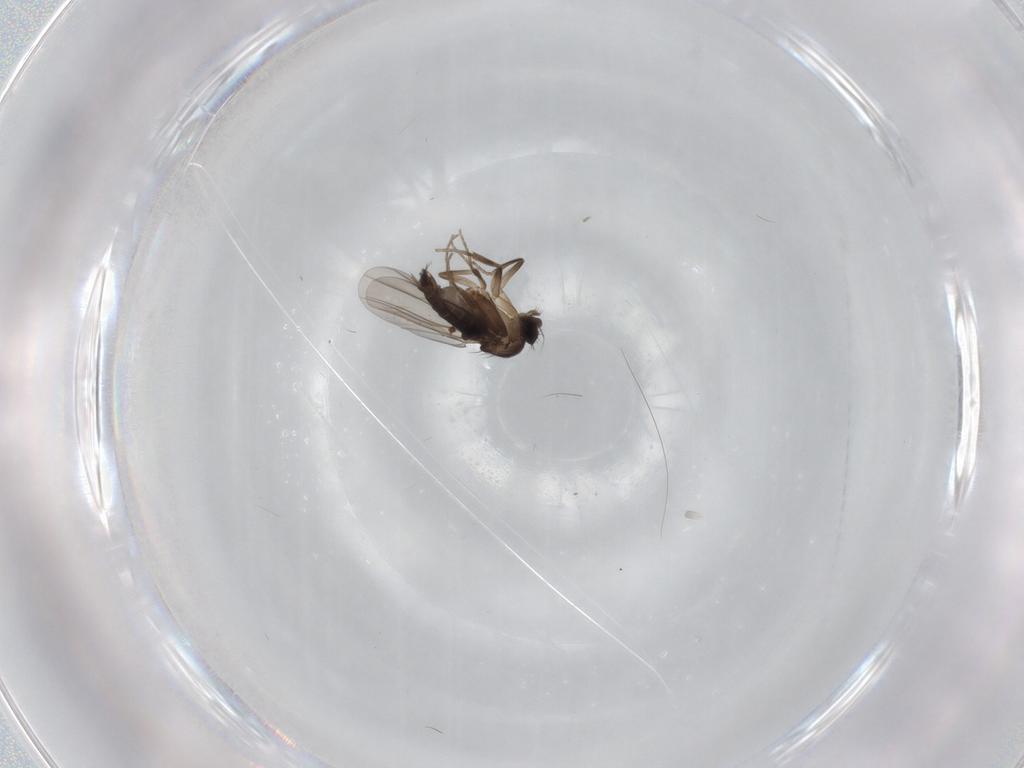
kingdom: Animalia
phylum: Arthropoda
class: Insecta
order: Diptera
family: Phoridae
